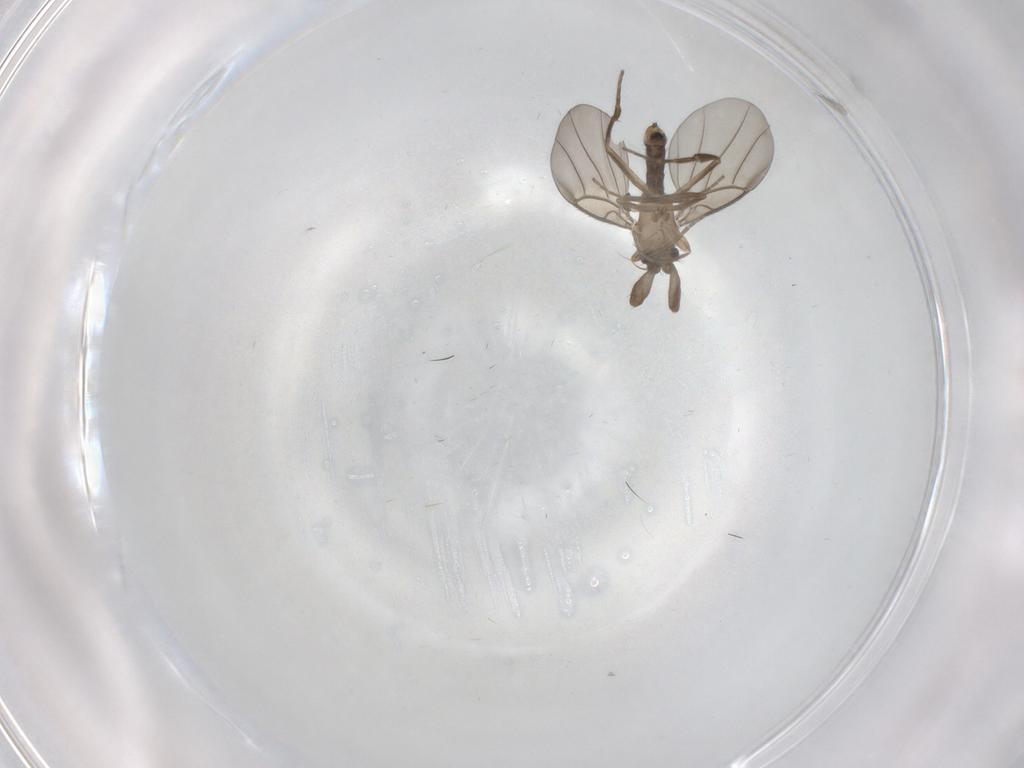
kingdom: Animalia
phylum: Arthropoda
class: Insecta
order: Diptera
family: Phoridae
